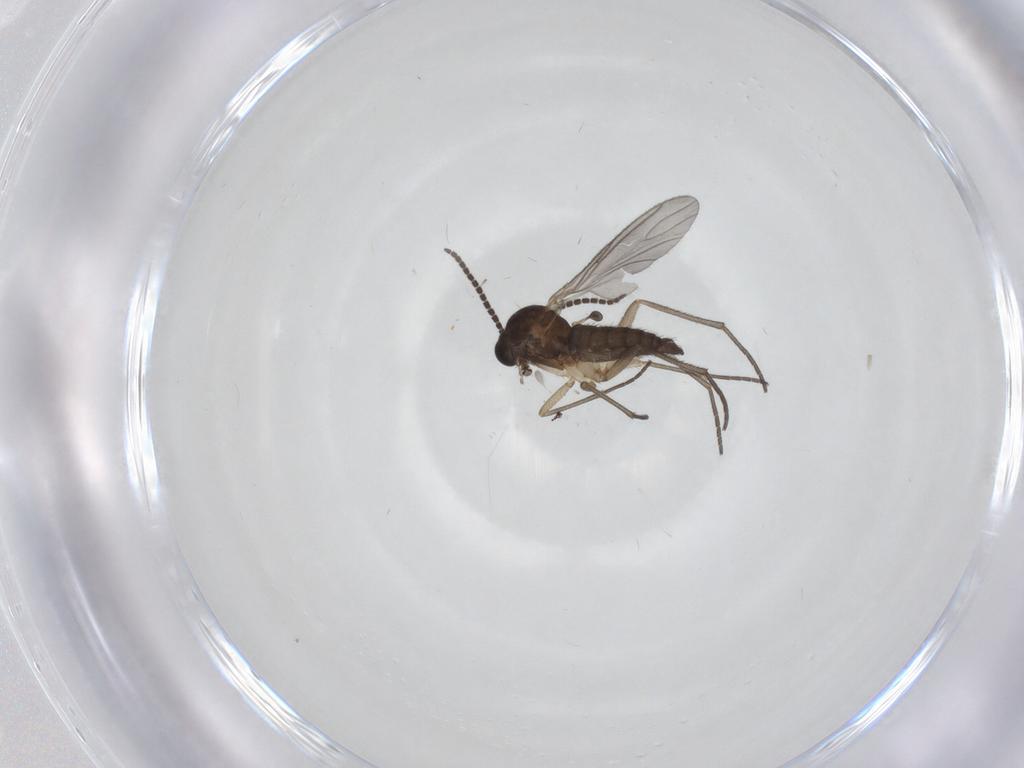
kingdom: Animalia
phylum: Arthropoda
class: Insecta
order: Diptera
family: Sciaridae
